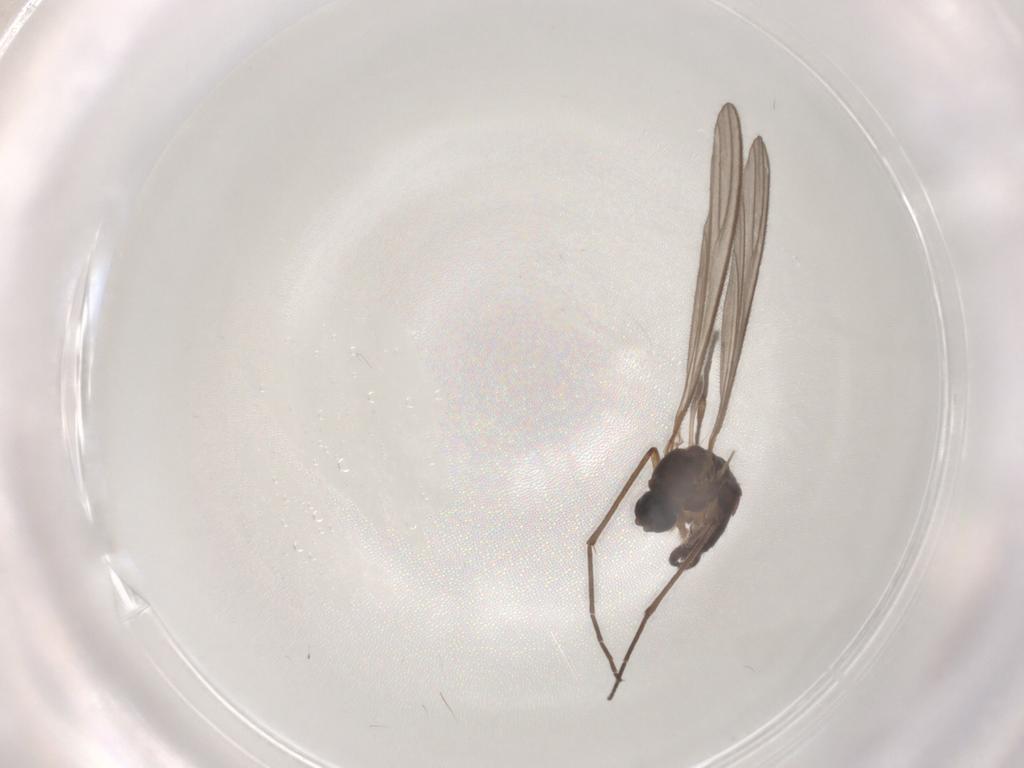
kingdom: Animalia
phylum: Arthropoda
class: Insecta
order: Diptera
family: Sciaridae
